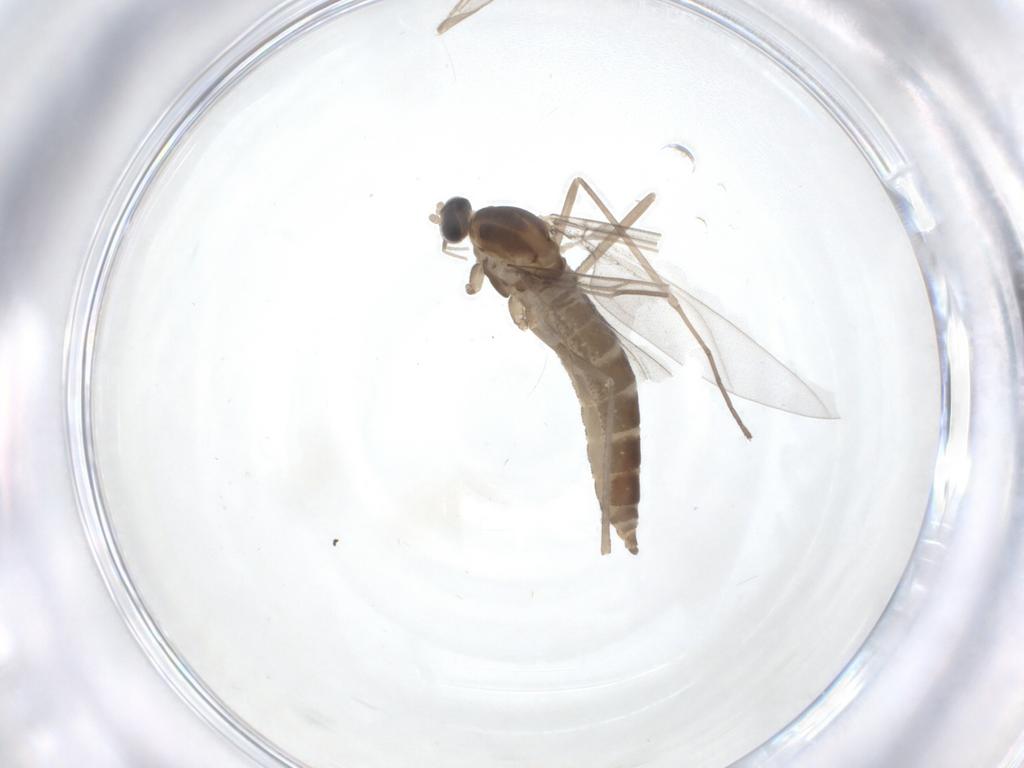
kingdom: Animalia
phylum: Arthropoda
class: Insecta
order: Diptera
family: Cecidomyiidae
